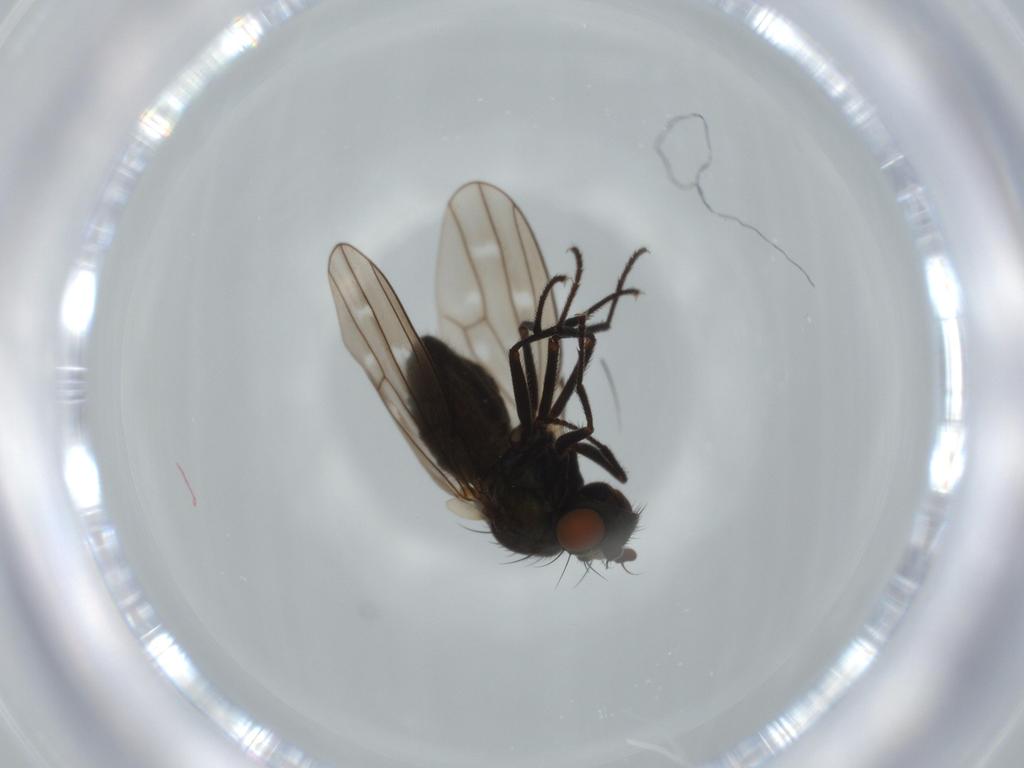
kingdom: Animalia
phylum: Arthropoda
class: Insecta
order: Diptera
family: Ephydridae
